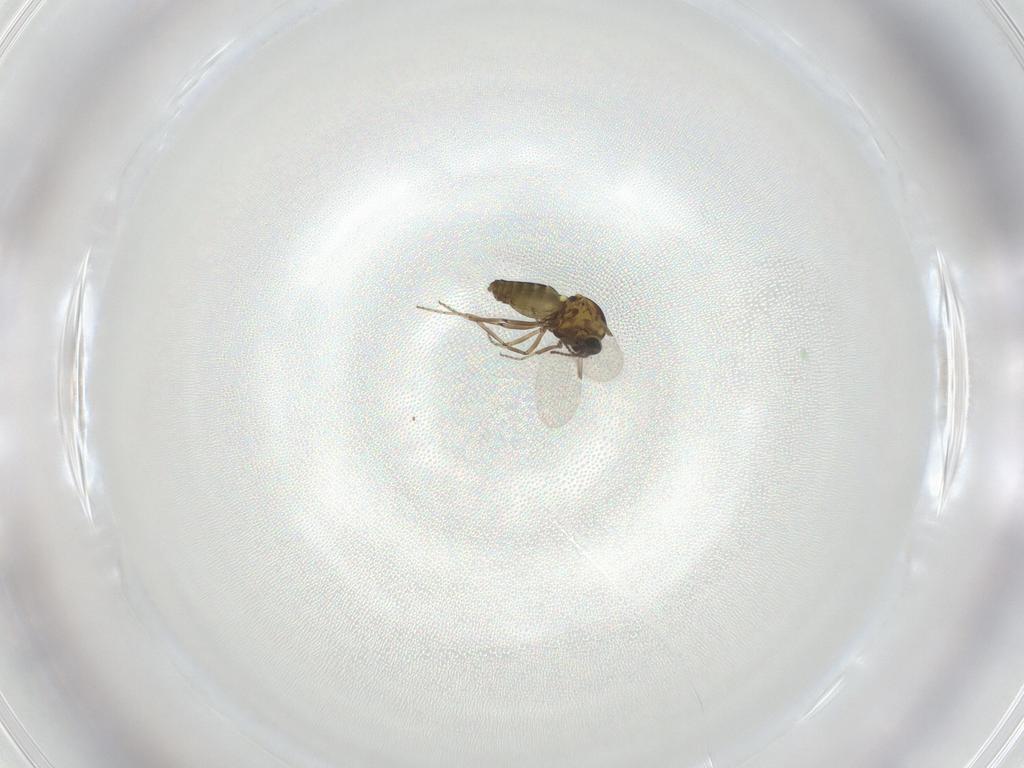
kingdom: Animalia
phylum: Arthropoda
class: Insecta
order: Diptera
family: Ceratopogonidae
